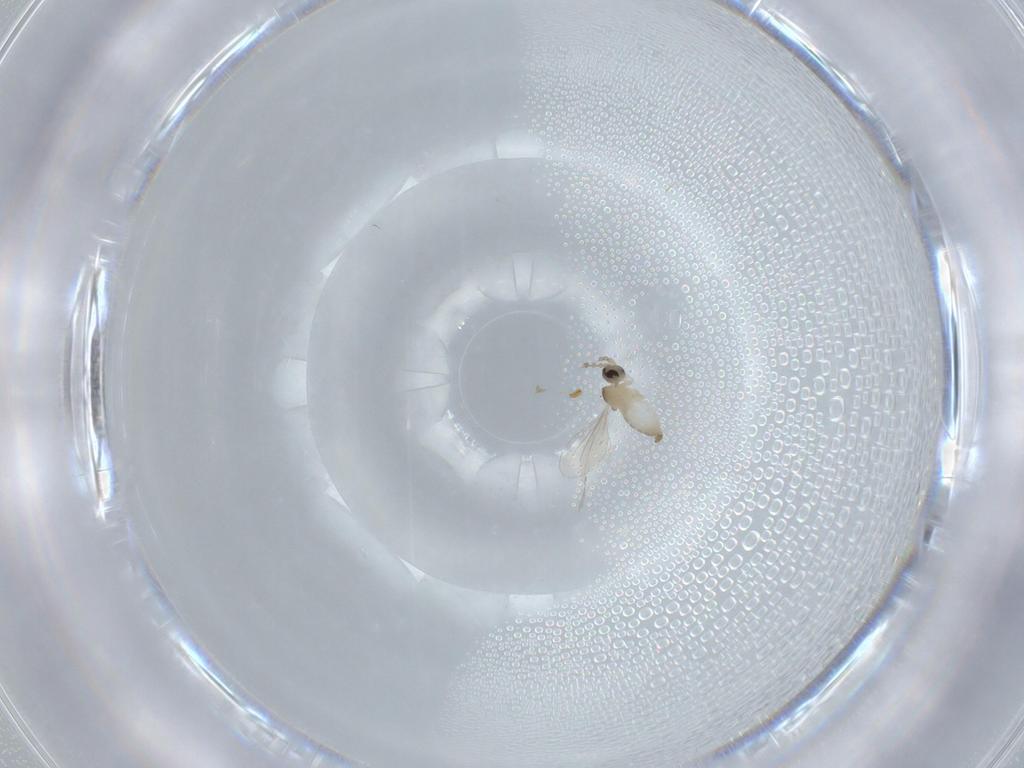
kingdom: Animalia
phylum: Arthropoda
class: Insecta
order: Diptera
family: Cecidomyiidae
